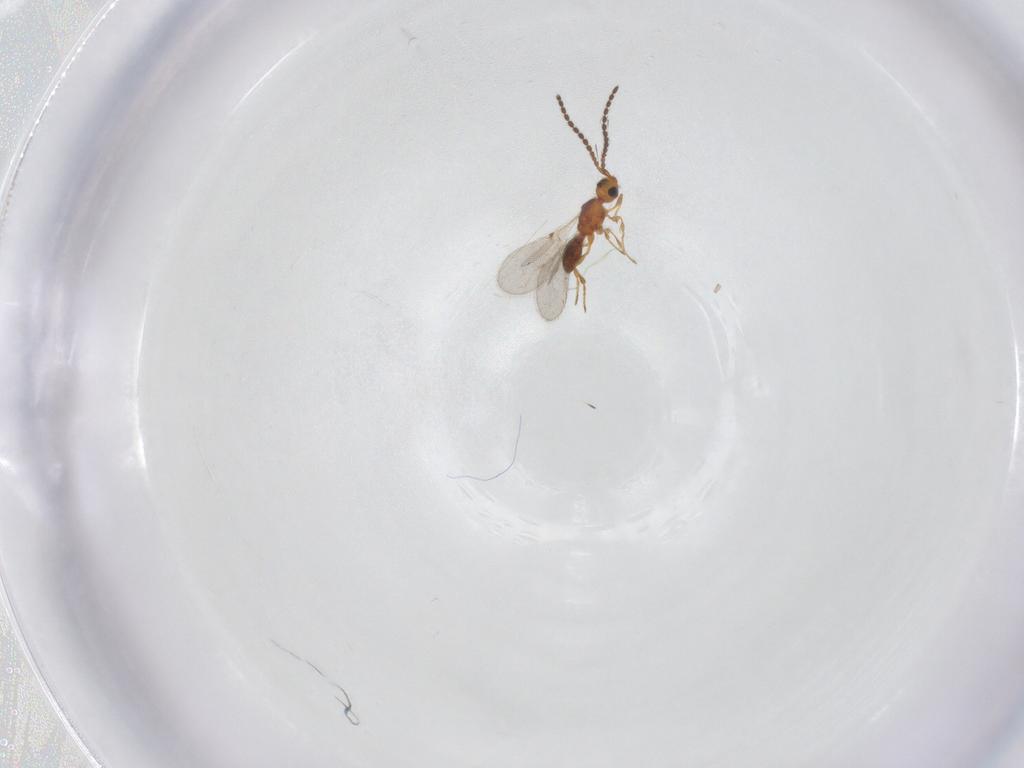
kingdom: Animalia
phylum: Arthropoda
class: Insecta
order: Hymenoptera
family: Diapriidae
